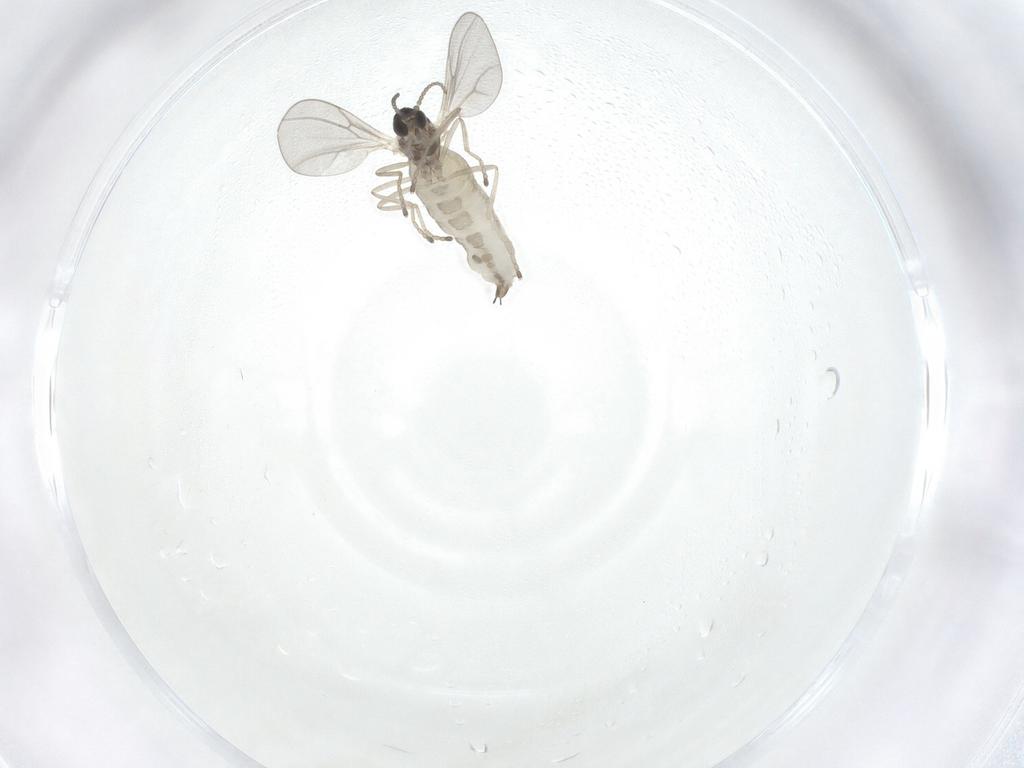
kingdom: Animalia
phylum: Arthropoda
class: Insecta
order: Diptera
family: Cecidomyiidae
